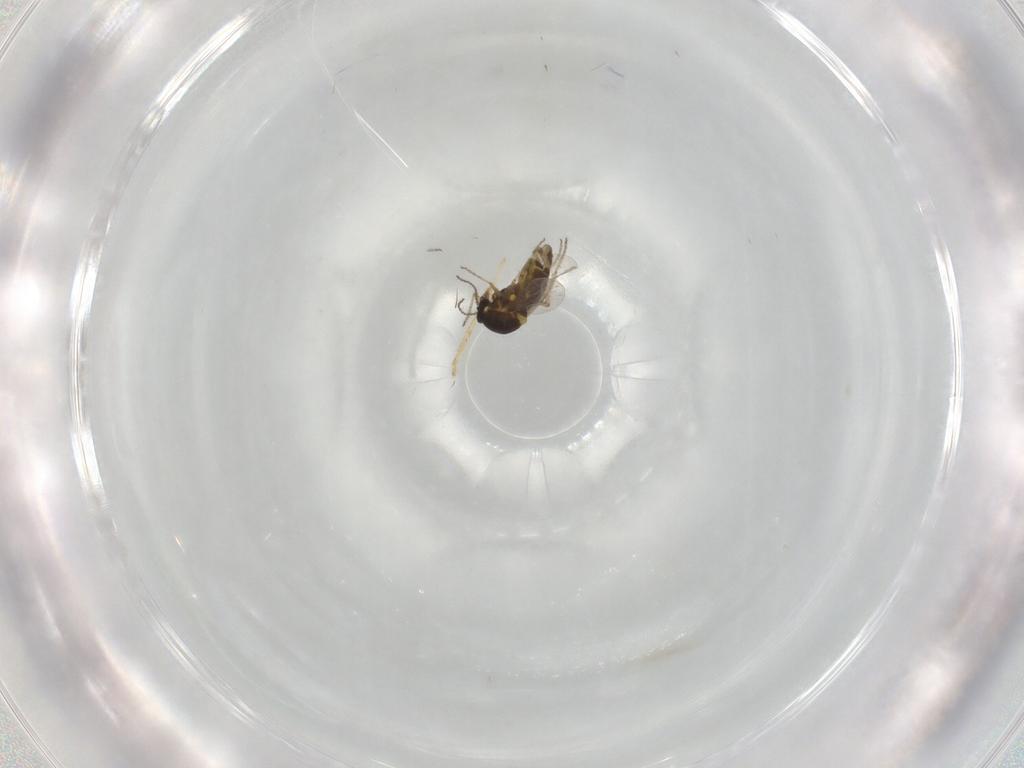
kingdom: Animalia
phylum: Arthropoda
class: Insecta
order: Diptera
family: Ceratopogonidae
